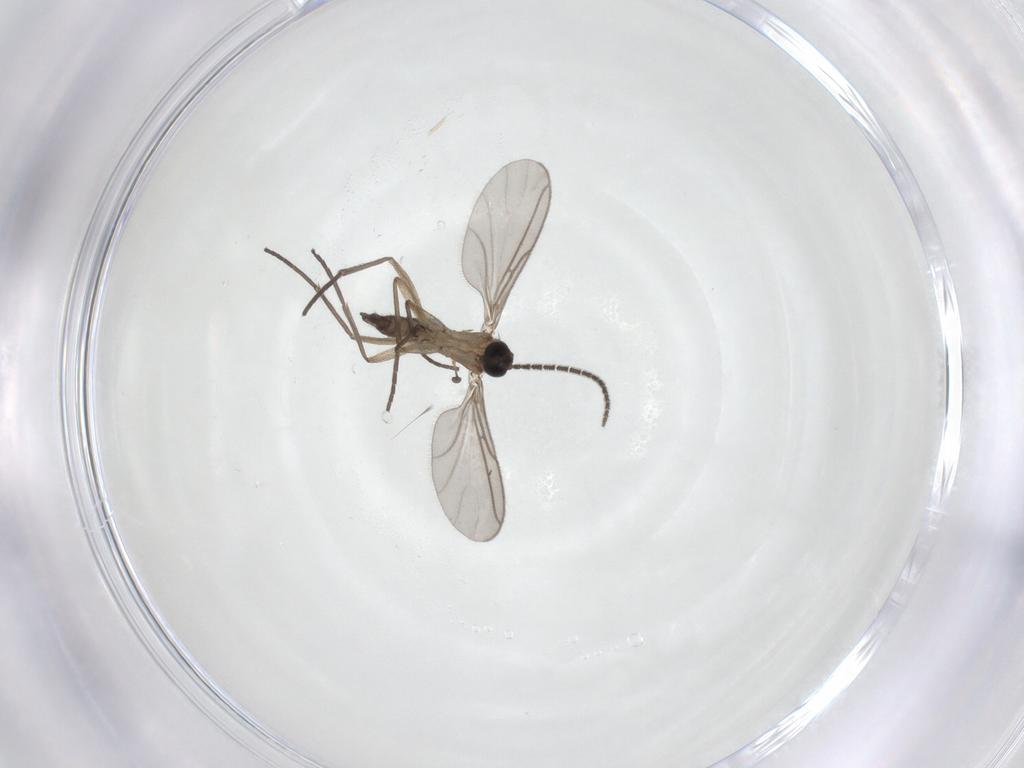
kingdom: Animalia
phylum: Arthropoda
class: Insecta
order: Diptera
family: Sciaridae
